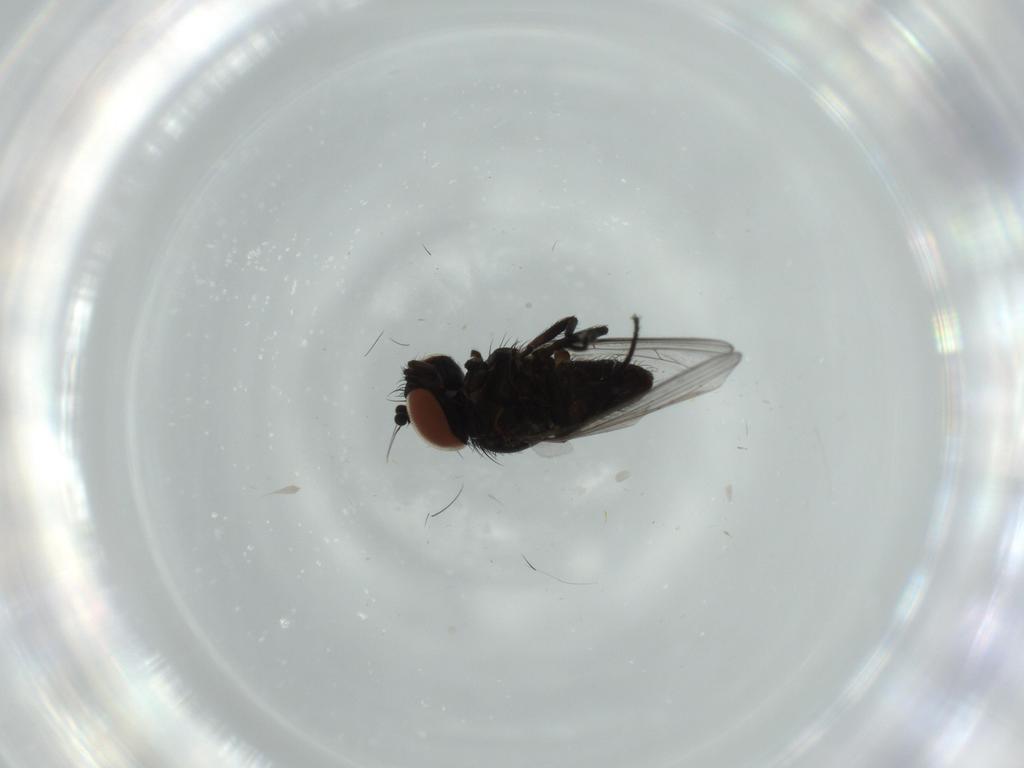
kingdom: Animalia
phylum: Arthropoda
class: Insecta
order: Diptera
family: Milichiidae
